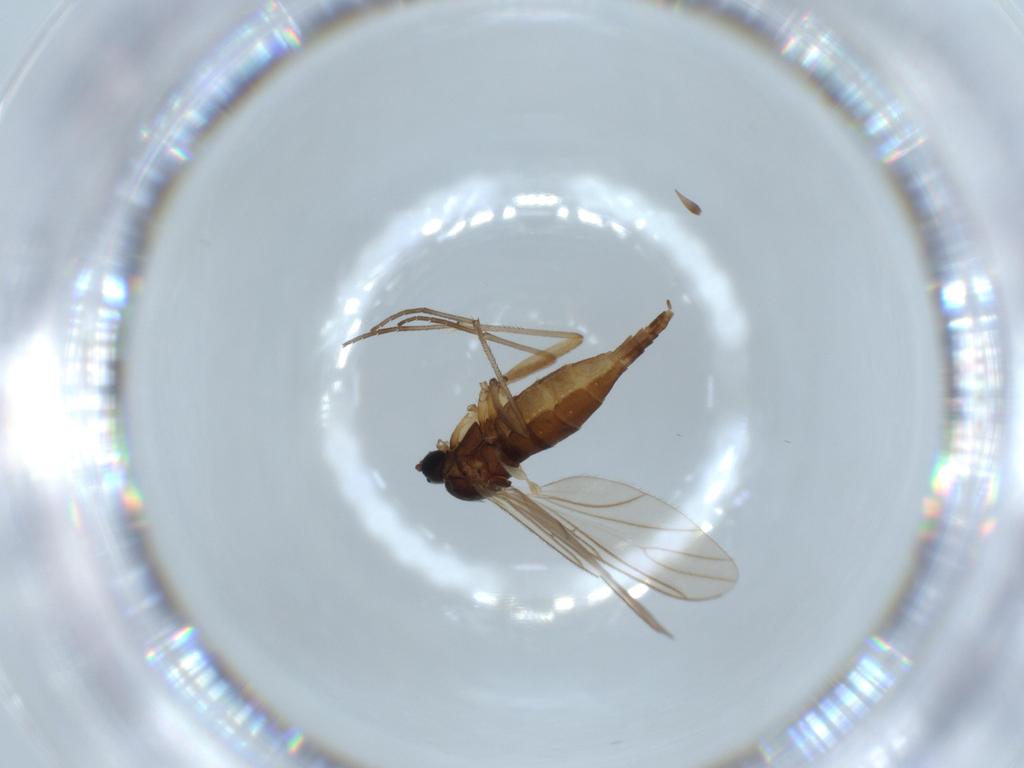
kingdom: Animalia
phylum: Arthropoda
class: Insecta
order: Diptera
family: Sciaridae
